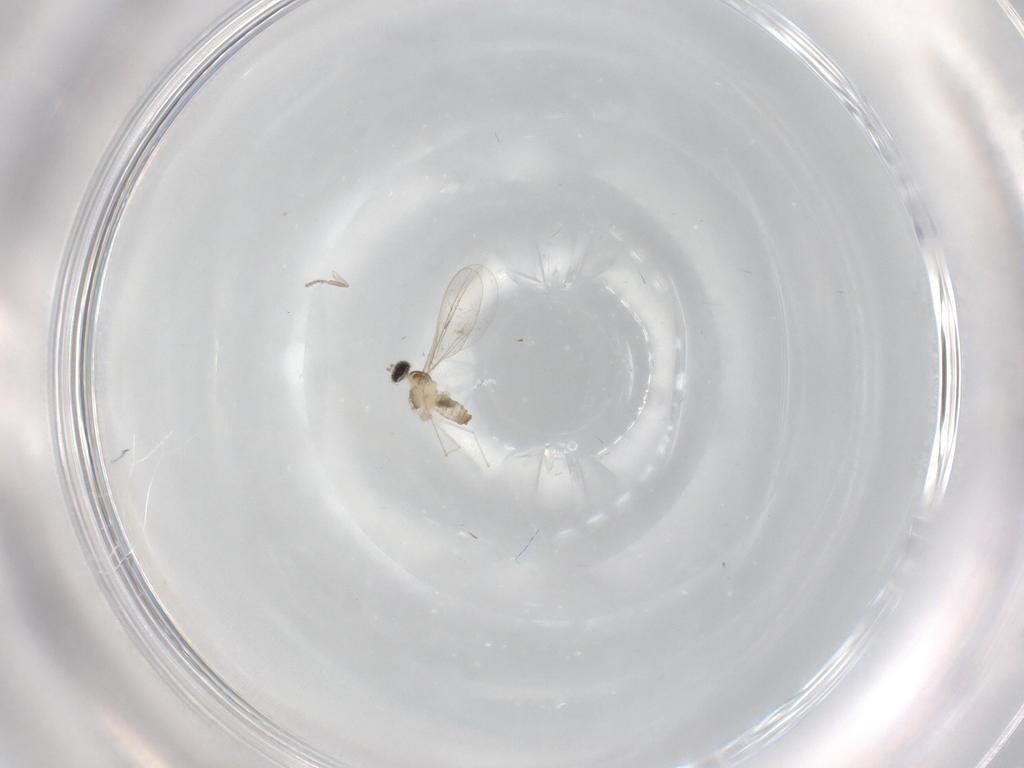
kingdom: Animalia
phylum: Arthropoda
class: Insecta
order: Diptera
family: Cecidomyiidae
